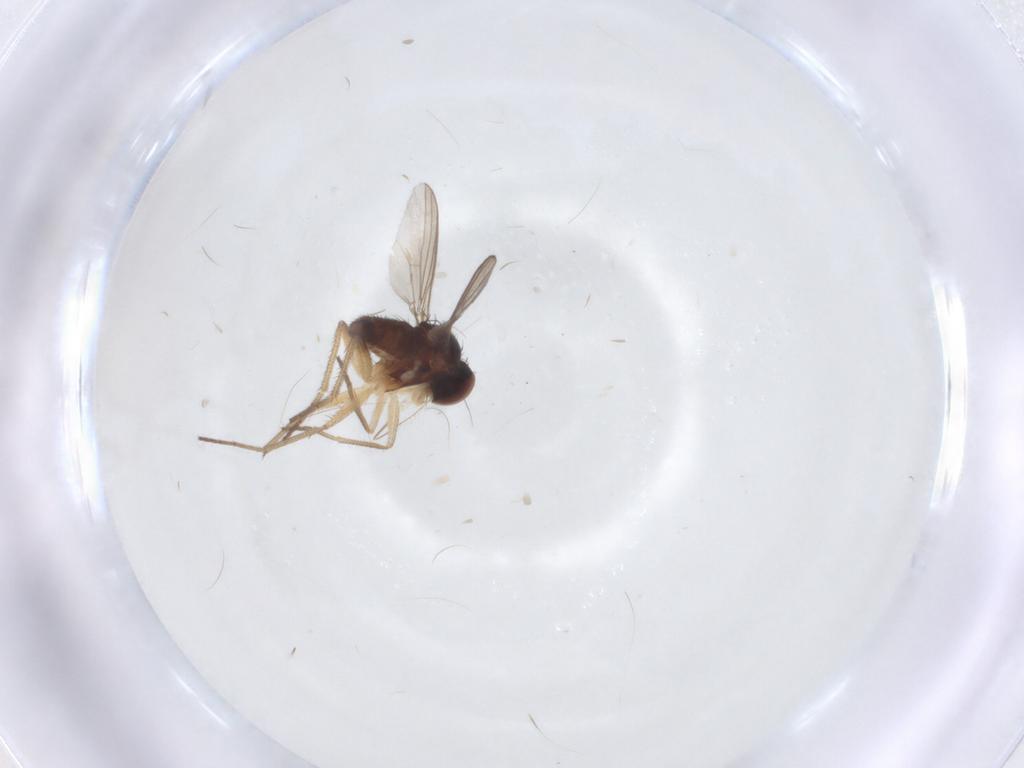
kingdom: Animalia
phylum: Arthropoda
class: Insecta
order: Diptera
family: Dolichopodidae
